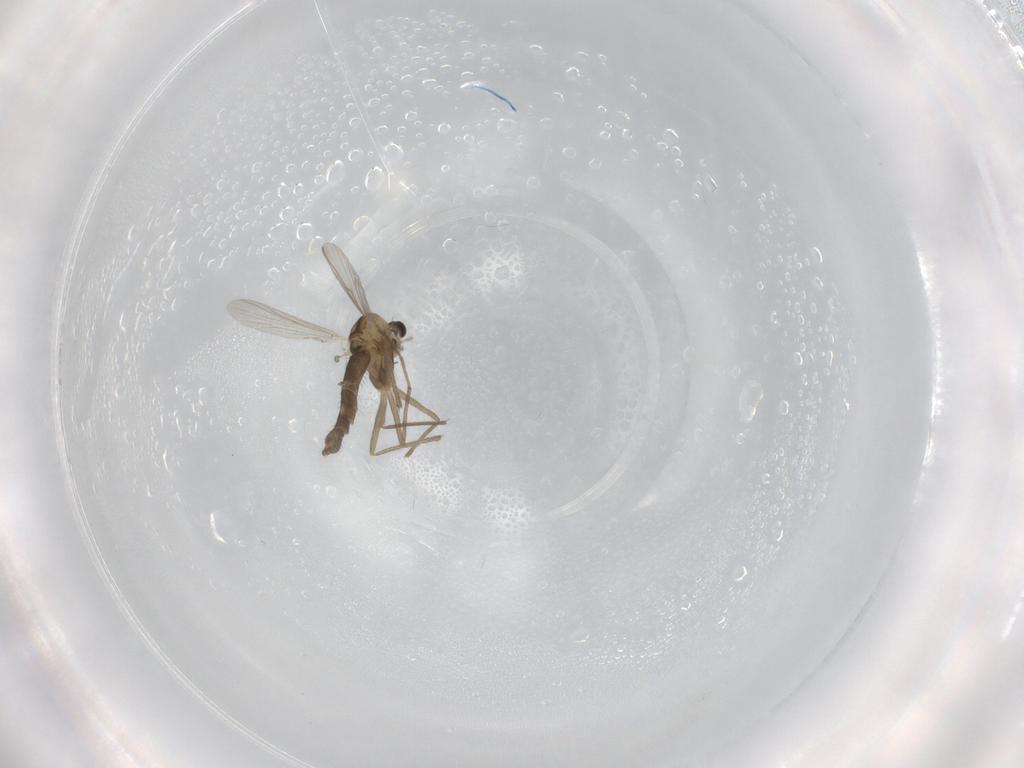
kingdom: Animalia
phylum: Arthropoda
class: Insecta
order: Diptera
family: Chironomidae
